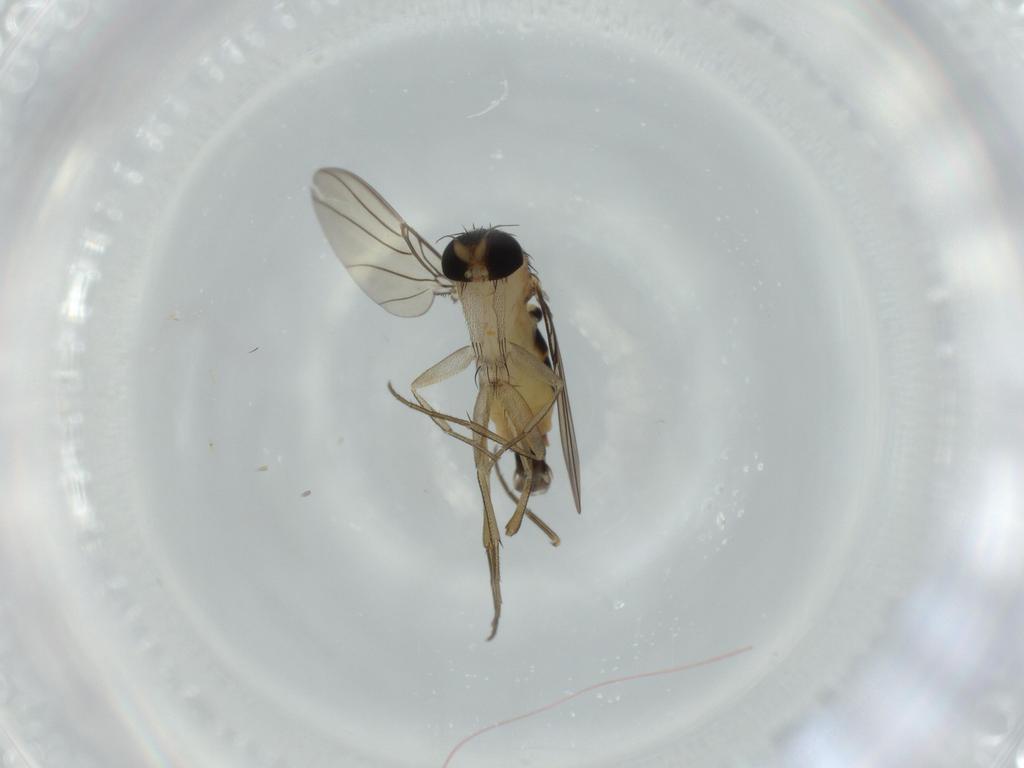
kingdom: Animalia
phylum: Arthropoda
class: Insecta
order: Diptera
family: Phoridae
